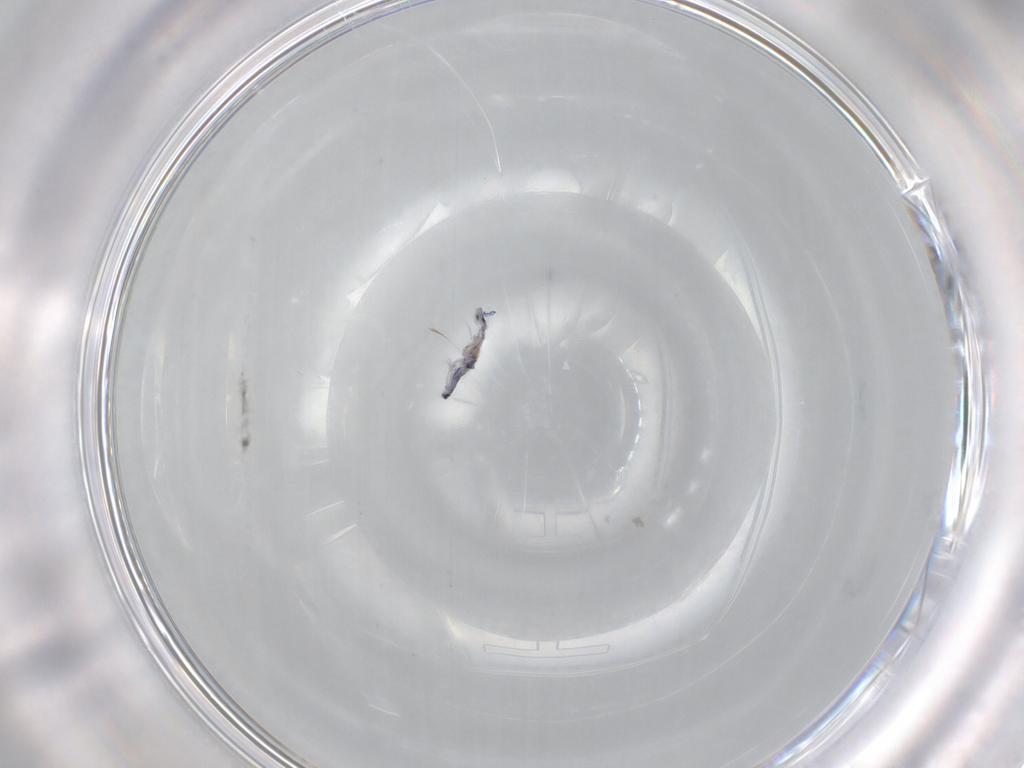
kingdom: Animalia
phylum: Arthropoda
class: Collembola
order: Entomobryomorpha
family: Entomobryidae
